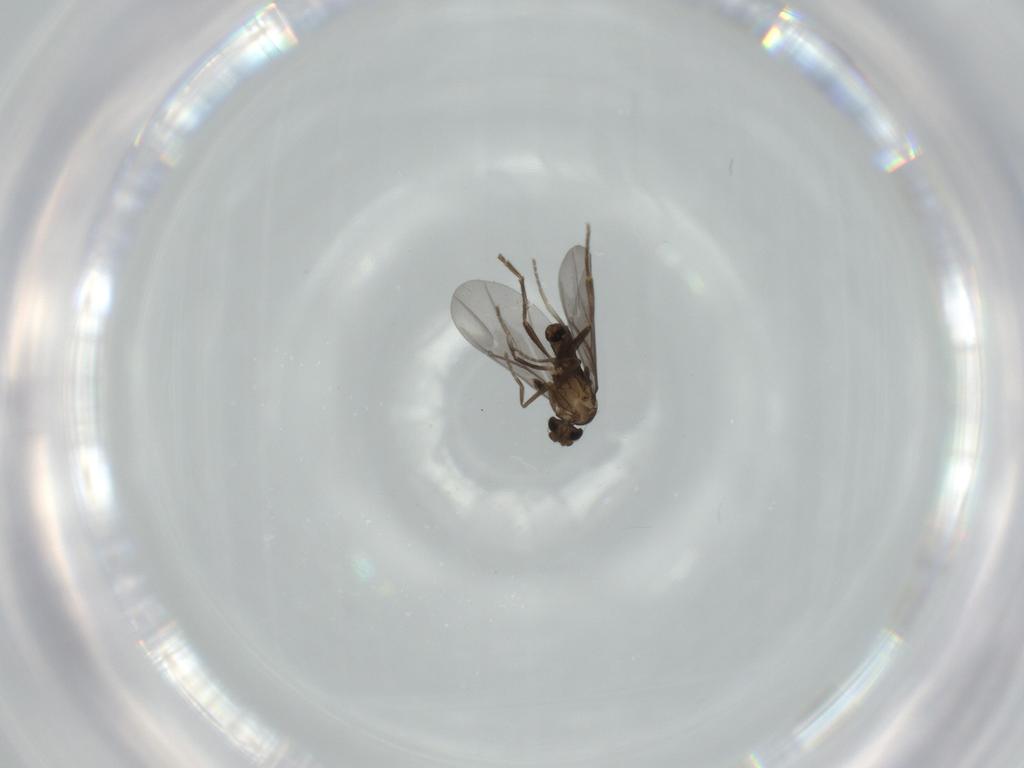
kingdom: Animalia
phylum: Arthropoda
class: Insecta
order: Diptera
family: Phoridae
